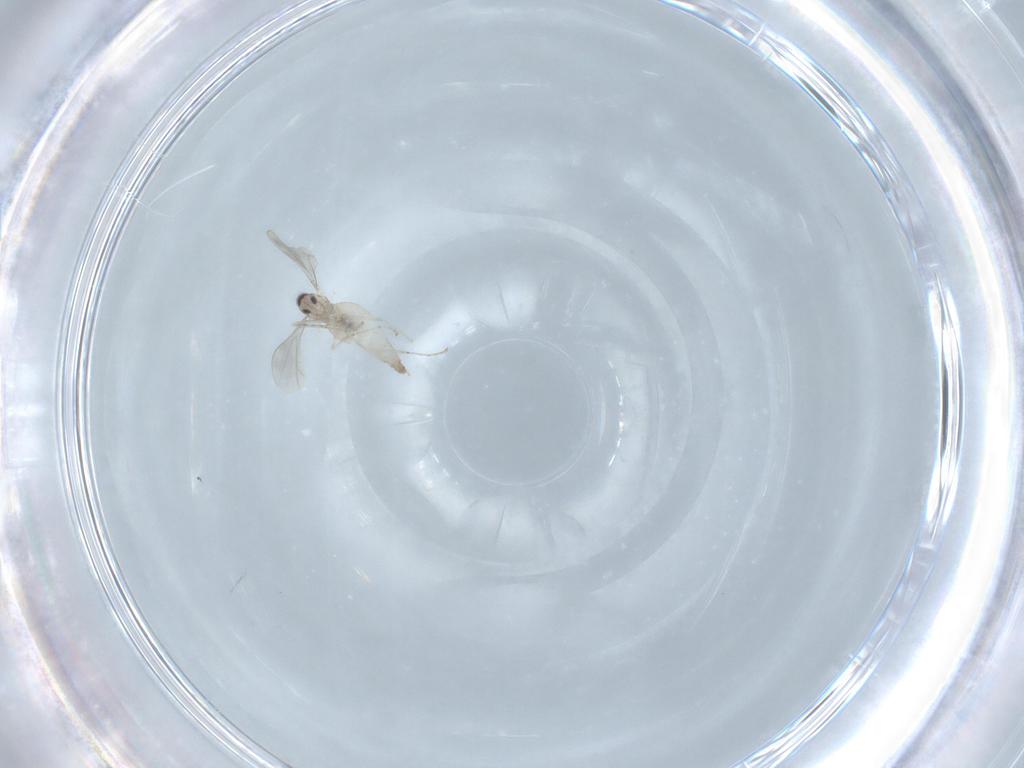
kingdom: Animalia
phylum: Arthropoda
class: Insecta
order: Diptera
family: Cecidomyiidae
